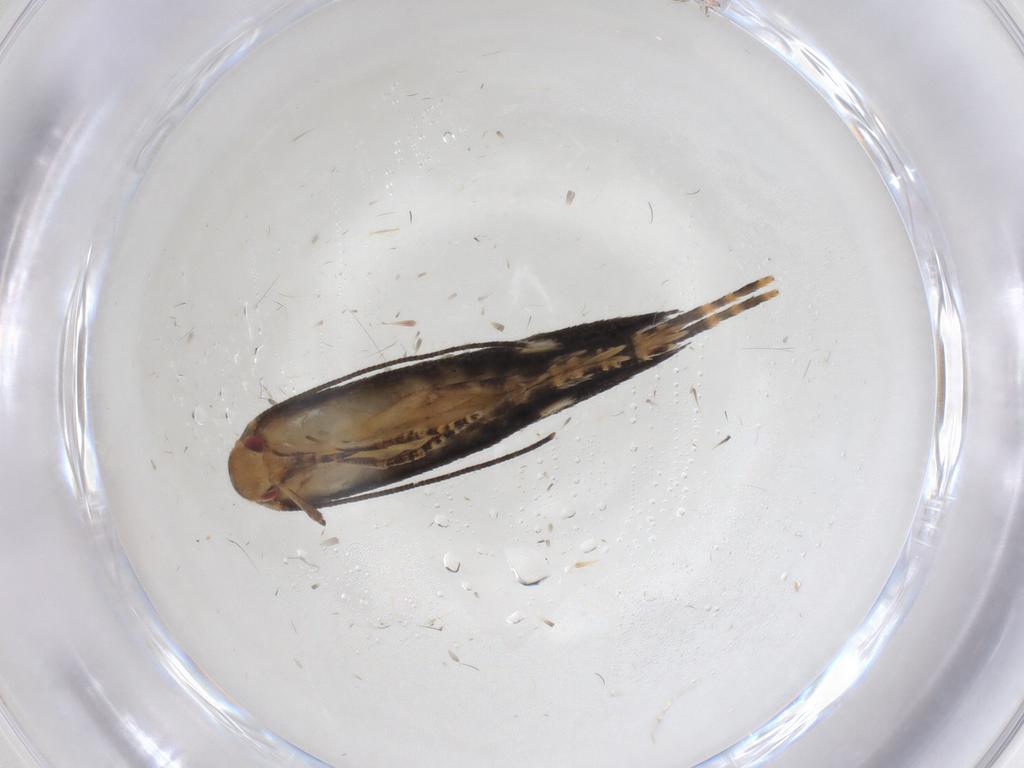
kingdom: Animalia
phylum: Arthropoda
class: Insecta
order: Lepidoptera
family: Momphidae
